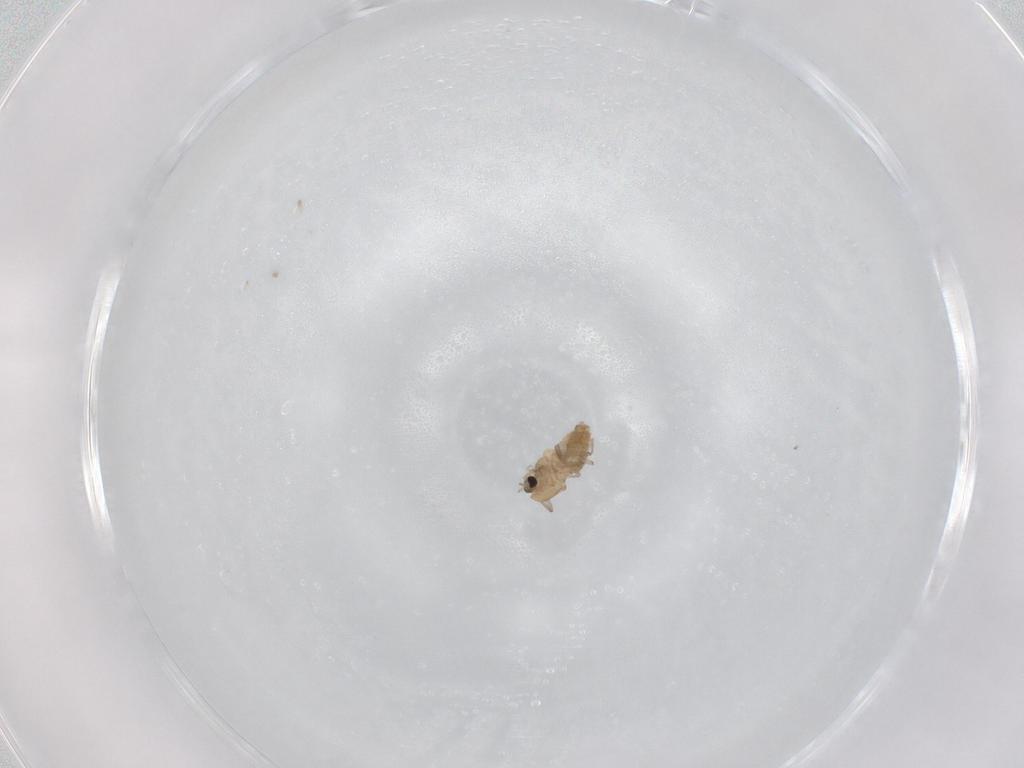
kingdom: Animalia
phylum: Arthropoda
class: Insecta
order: Diptera
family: Chironomidae
